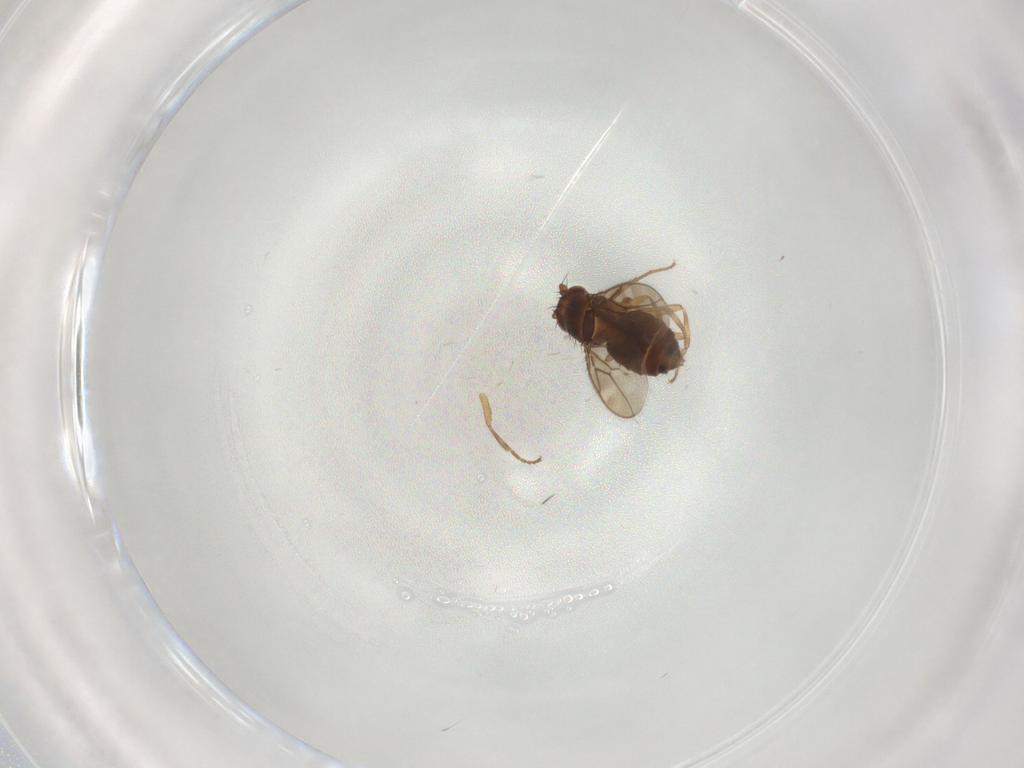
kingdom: Animalia
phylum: Arthropoda
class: Insecta
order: Diptera
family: Sphaeroceridae
